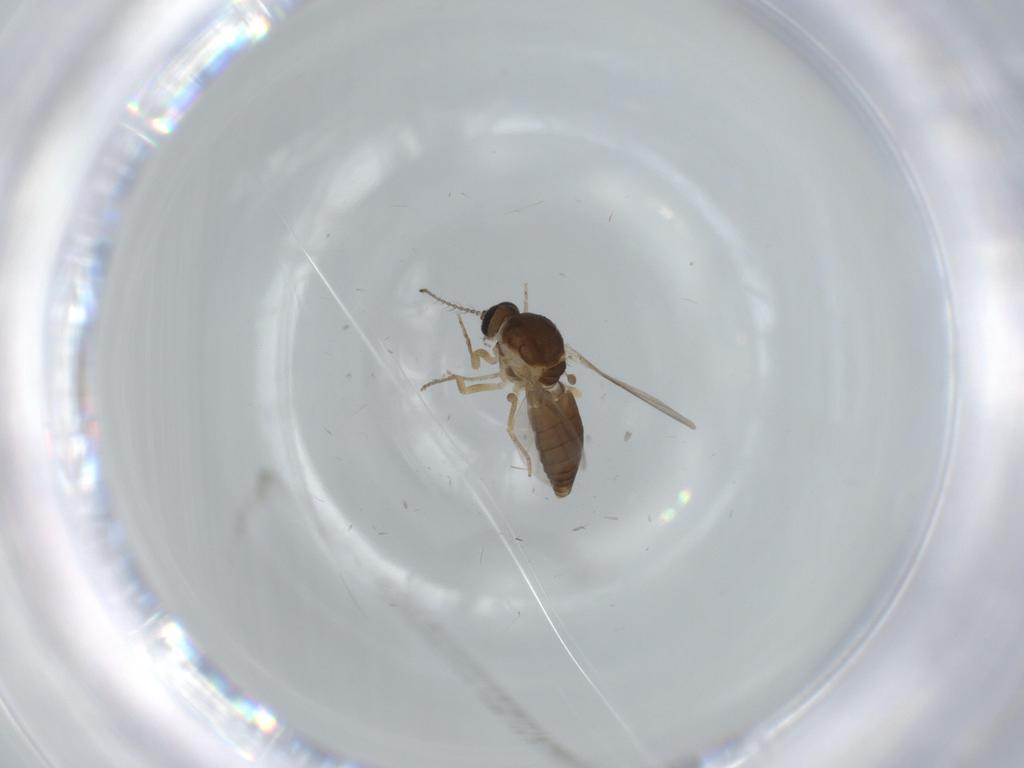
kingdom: Animalia
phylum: Arthropoda
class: Insecta
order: Diptera
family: Ceratopogonidae
